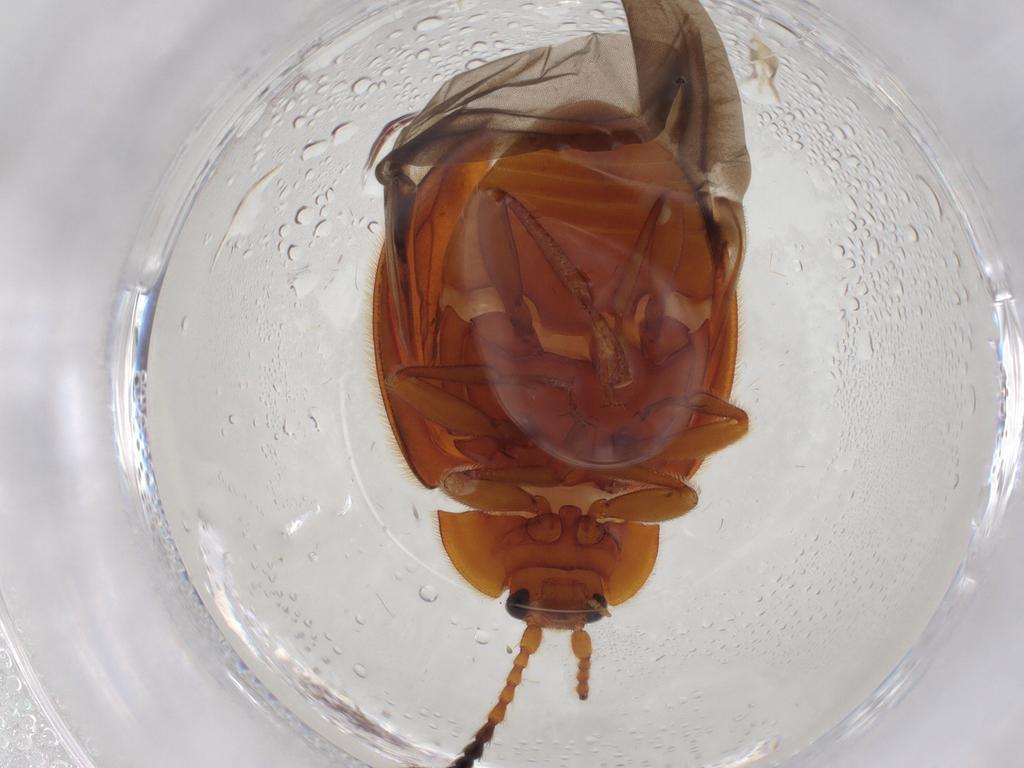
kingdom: Animalia
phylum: Arthropoda
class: Insecta
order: Coleoptera
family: Endomychidae
